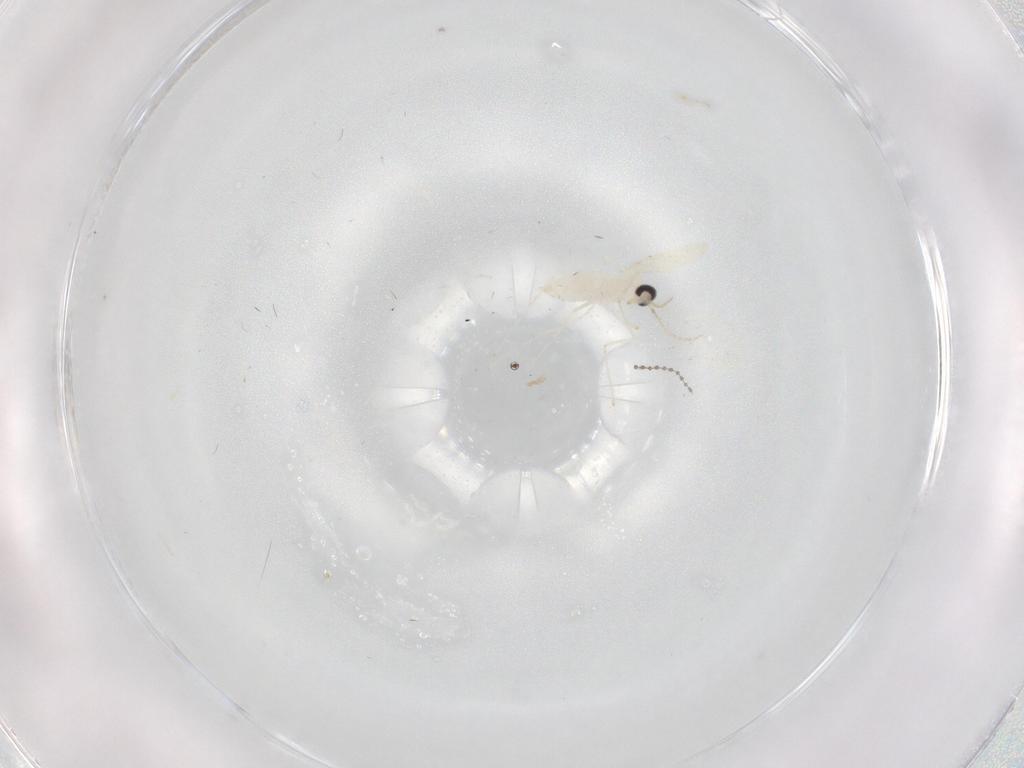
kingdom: Animalia
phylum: Arthropoda
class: Insecta
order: Diptera
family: Cecidomyiidae
